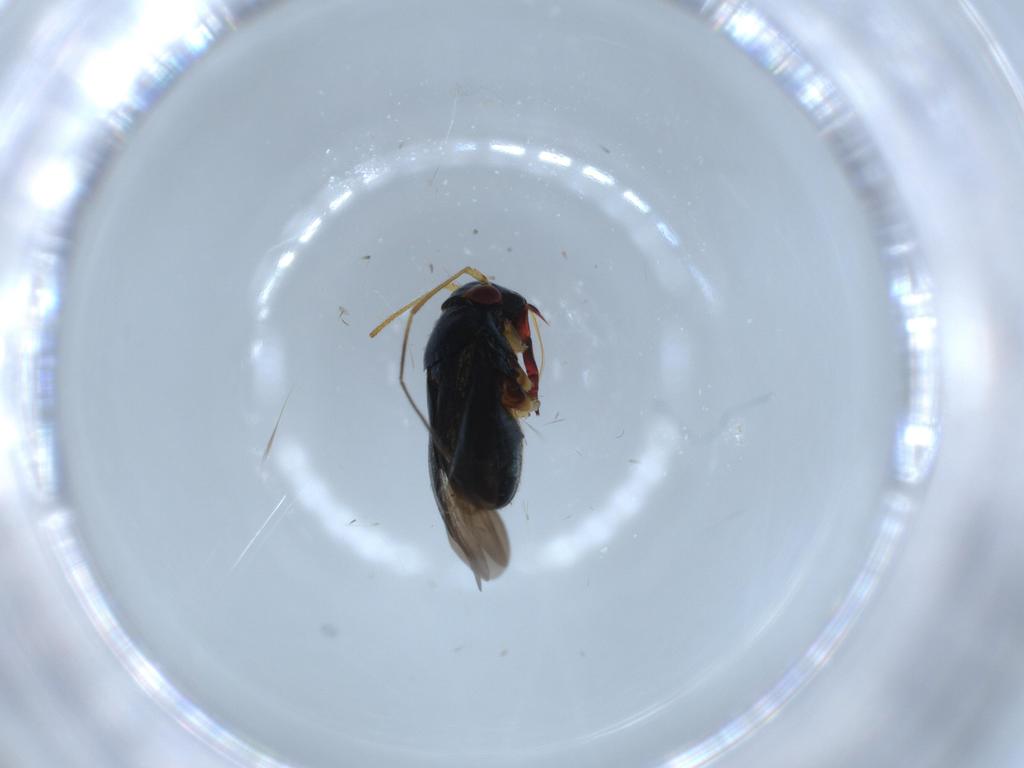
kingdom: Animalia
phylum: Arthropoda
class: Insecta
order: Hemiptera
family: Miridae
